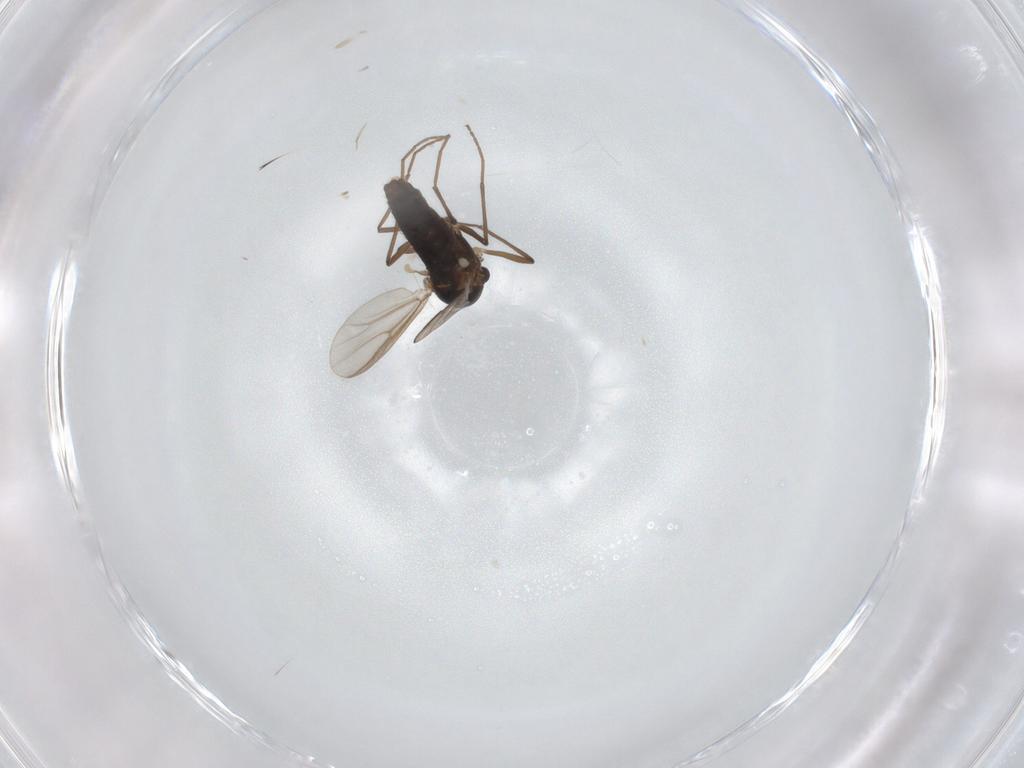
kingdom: Animalia
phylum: Arthropoda
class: Insecta
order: Diptera
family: Chironomidae
